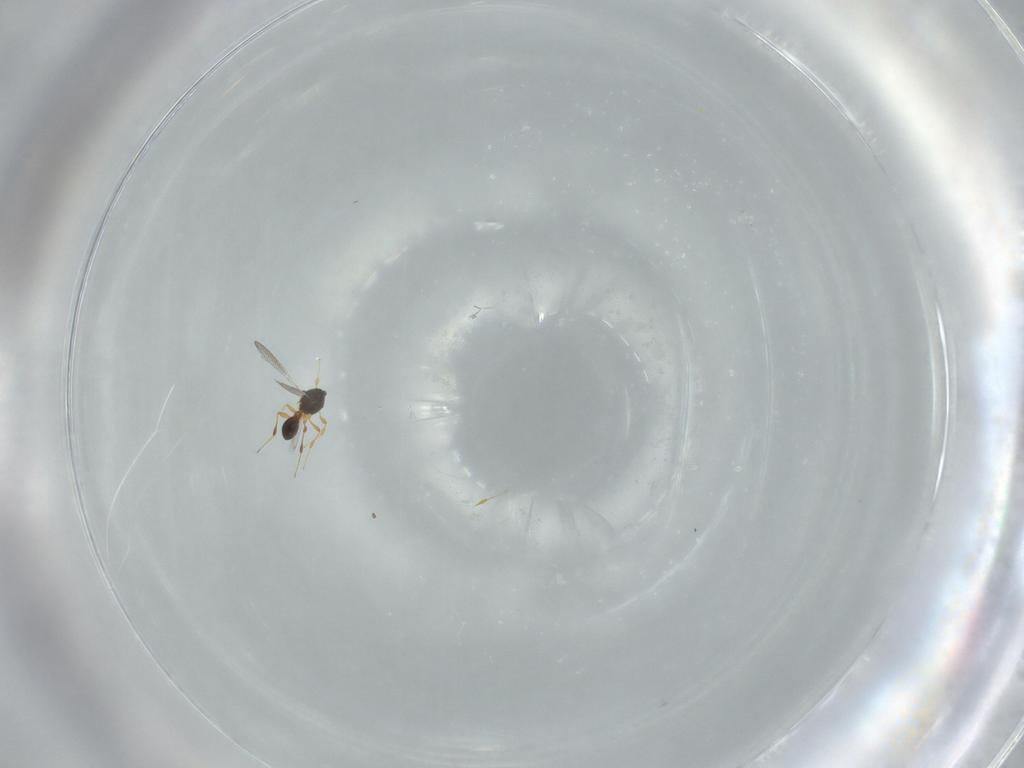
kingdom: Animalia
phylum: Arthropoda
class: Insecta
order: Hymenoptera
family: Platygastridae
